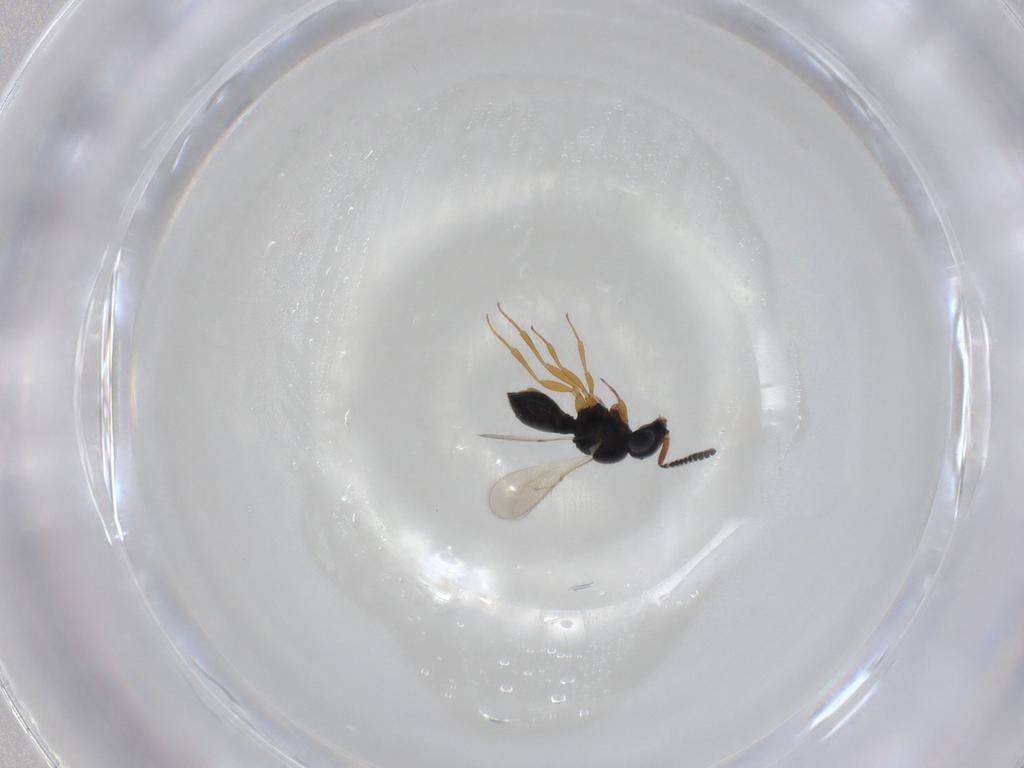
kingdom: Animalia
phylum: Arthropoda
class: Insecta
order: Hymenoptera
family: Scelionidae
